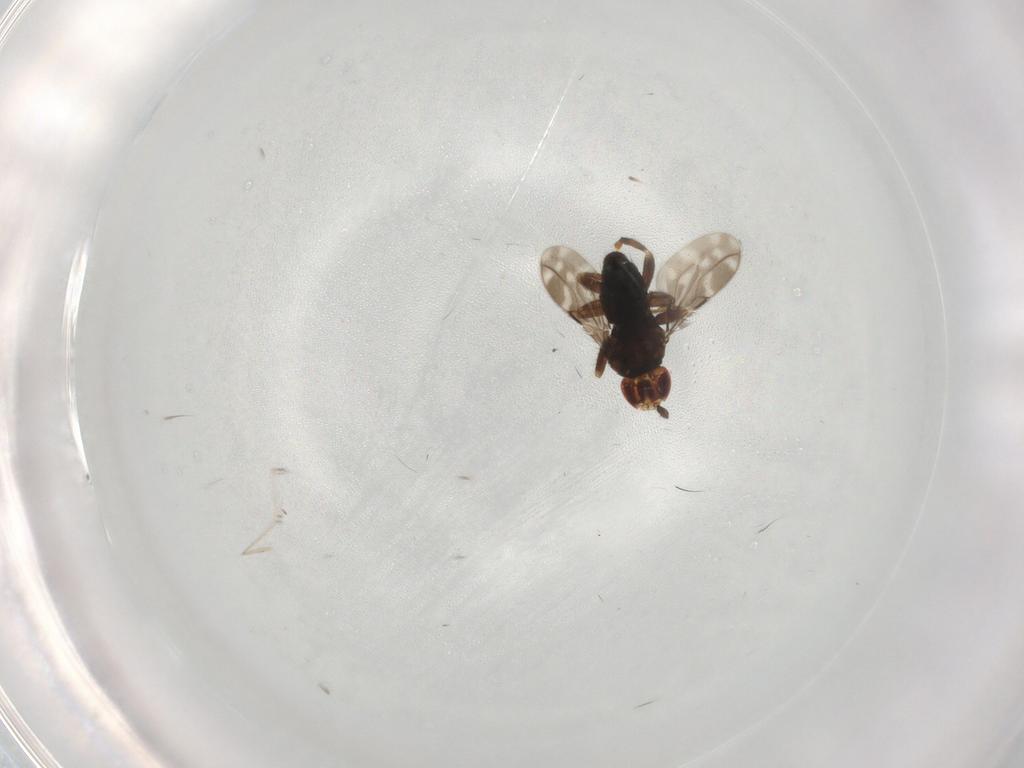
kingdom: Animalia
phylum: Arthropoda
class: Insecta
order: Diptera
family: Sphaeroceridae
